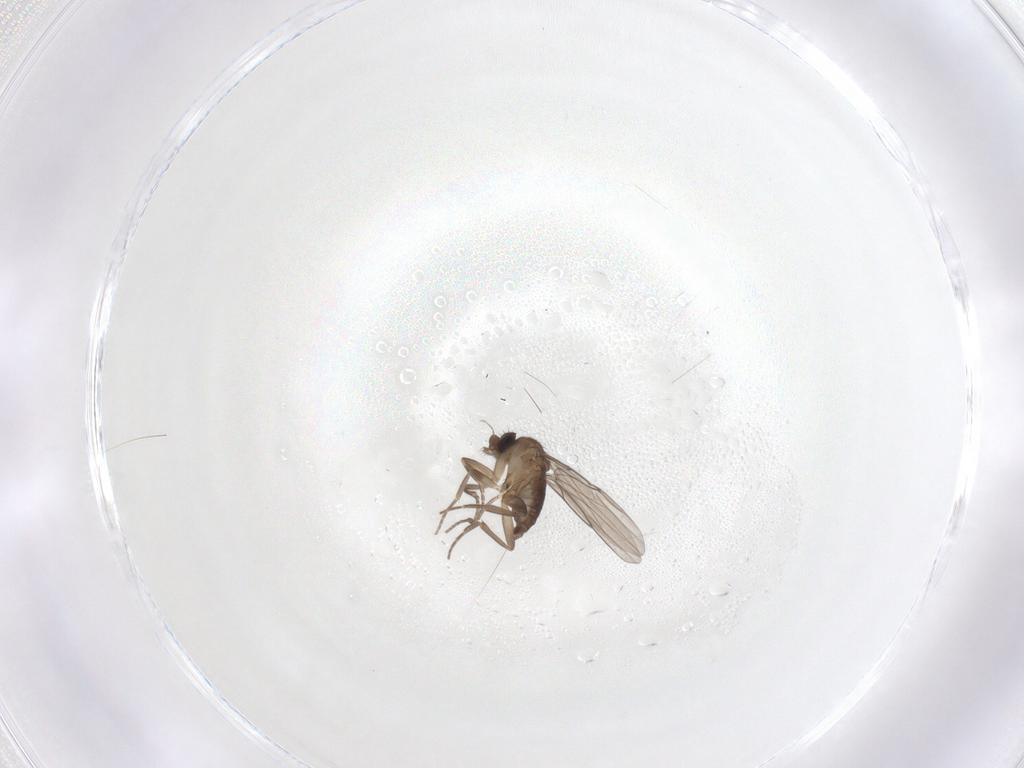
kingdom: Animalia
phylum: Arthropoda
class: Insecta
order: Diptera
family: Phoridae
